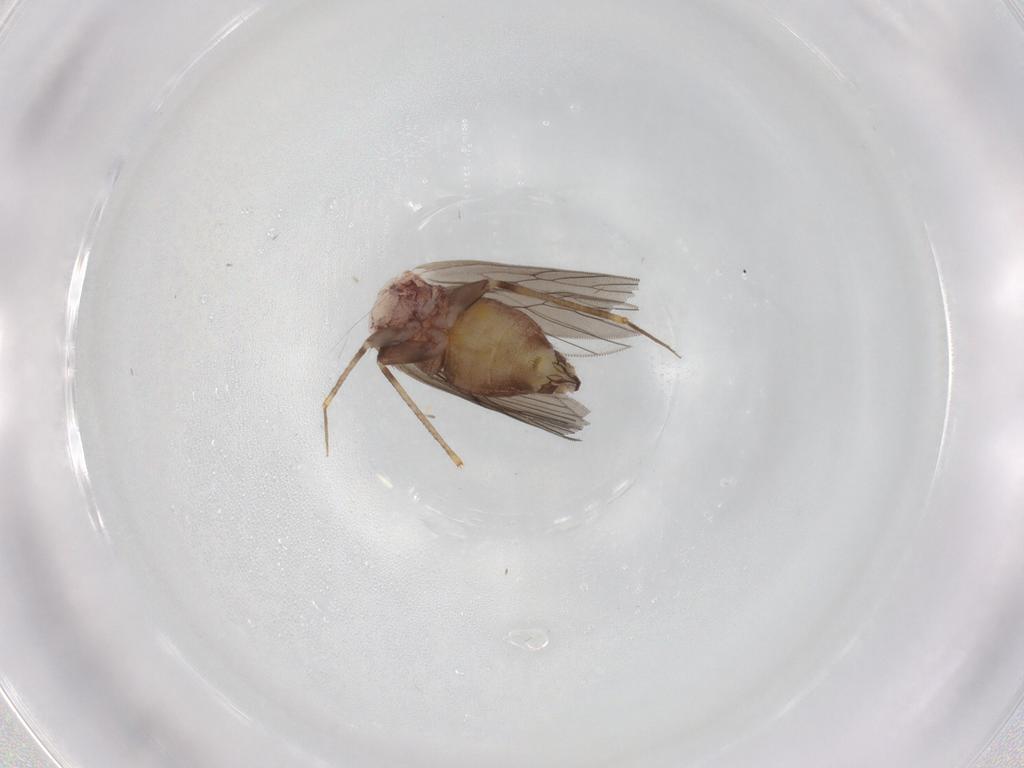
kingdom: Animalia
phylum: Arthropoda
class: Insecta
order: Psocodea
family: Lepidopsocidae
